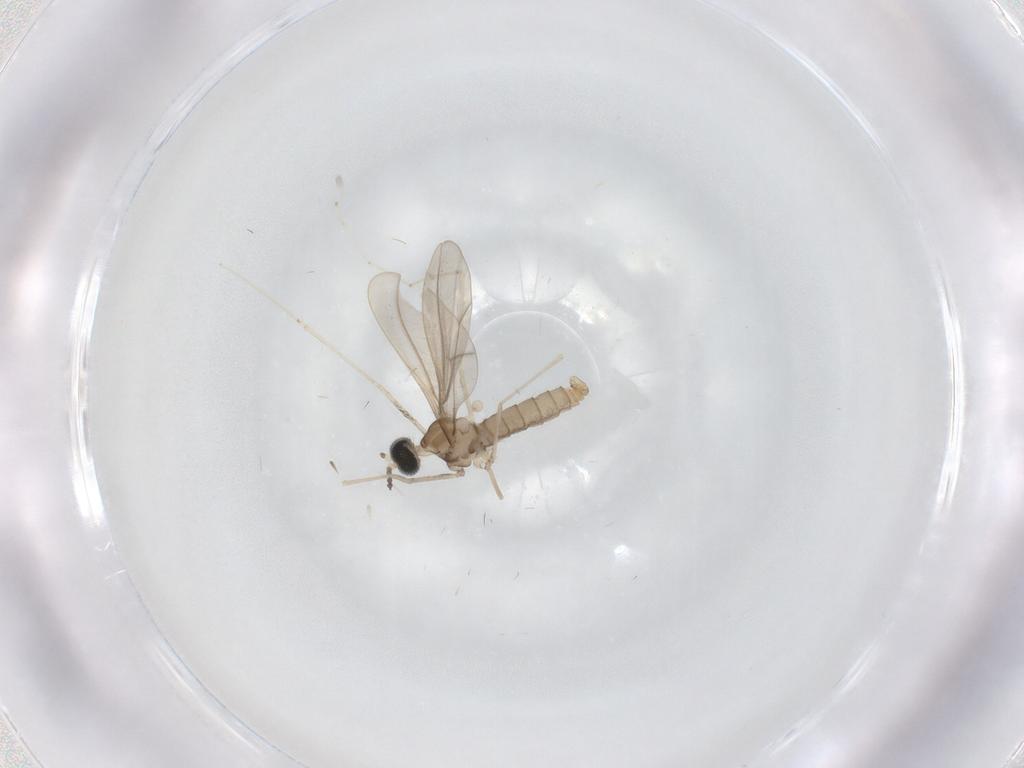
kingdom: Animalia
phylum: Arthropoda
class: Insecta
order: Diptera
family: Cecidomyiidae
